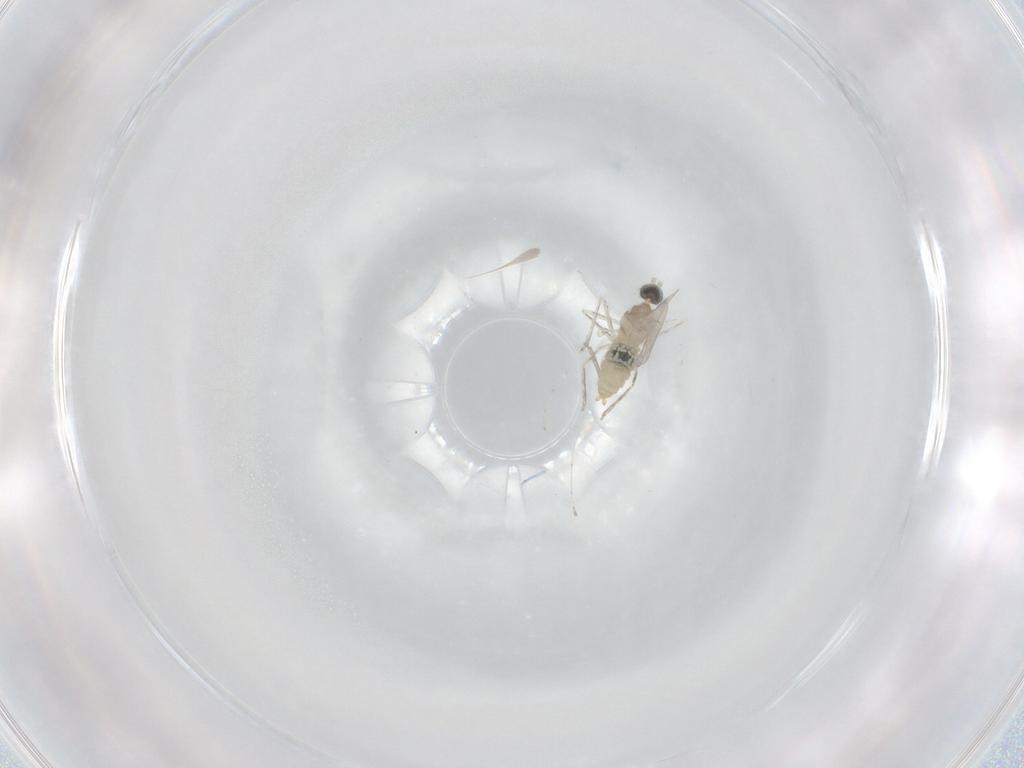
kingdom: Animalia
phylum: Arthropoda
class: Insecta
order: Diptera
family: Cecidomyiidae
